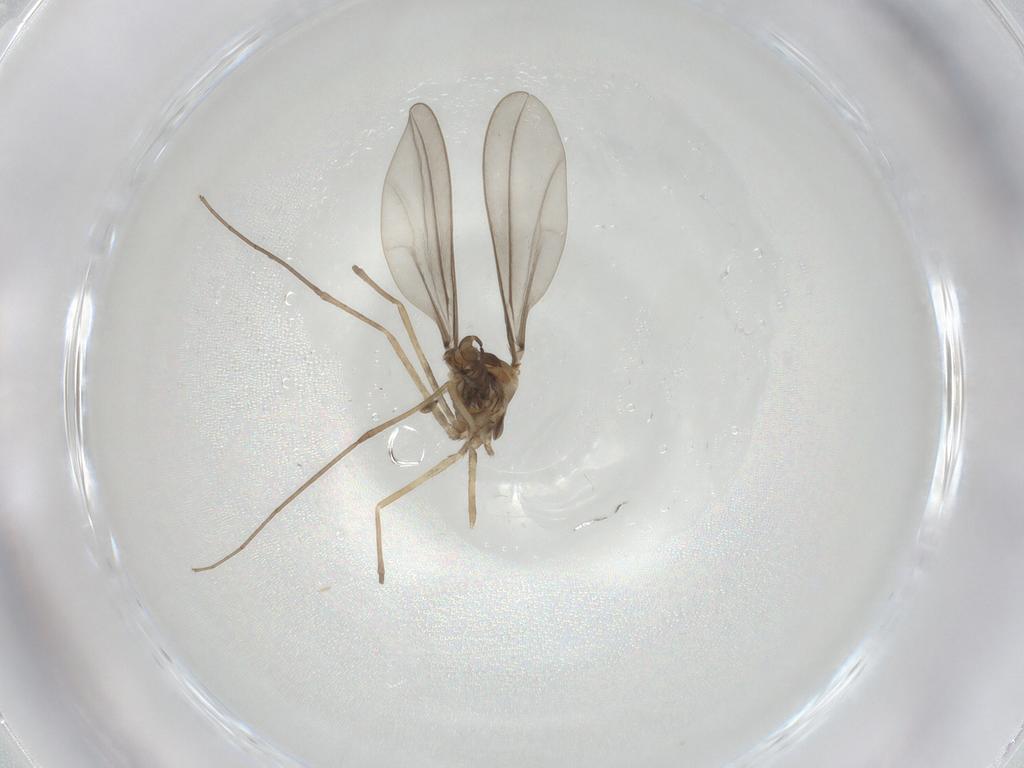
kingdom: Animalia
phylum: Arthropoda
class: Insecta
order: Diptera
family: Cecidomyiidae
